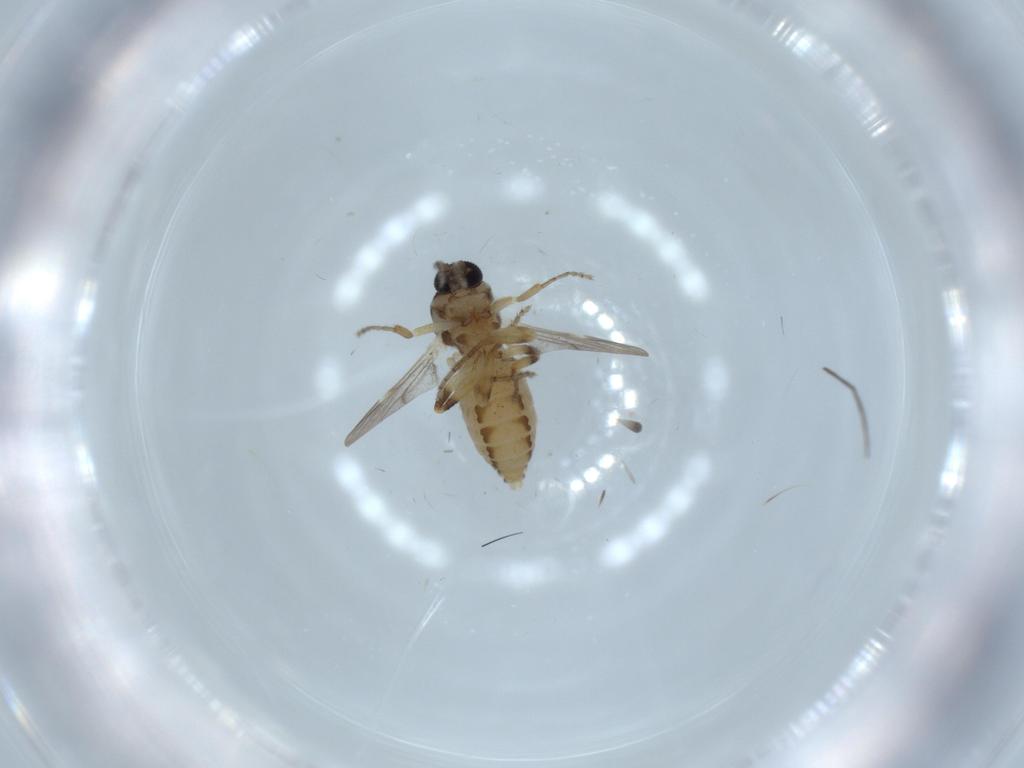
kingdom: Animalia
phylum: Arthropoda
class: Insecta
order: Diptera
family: Ceratopogonidae
